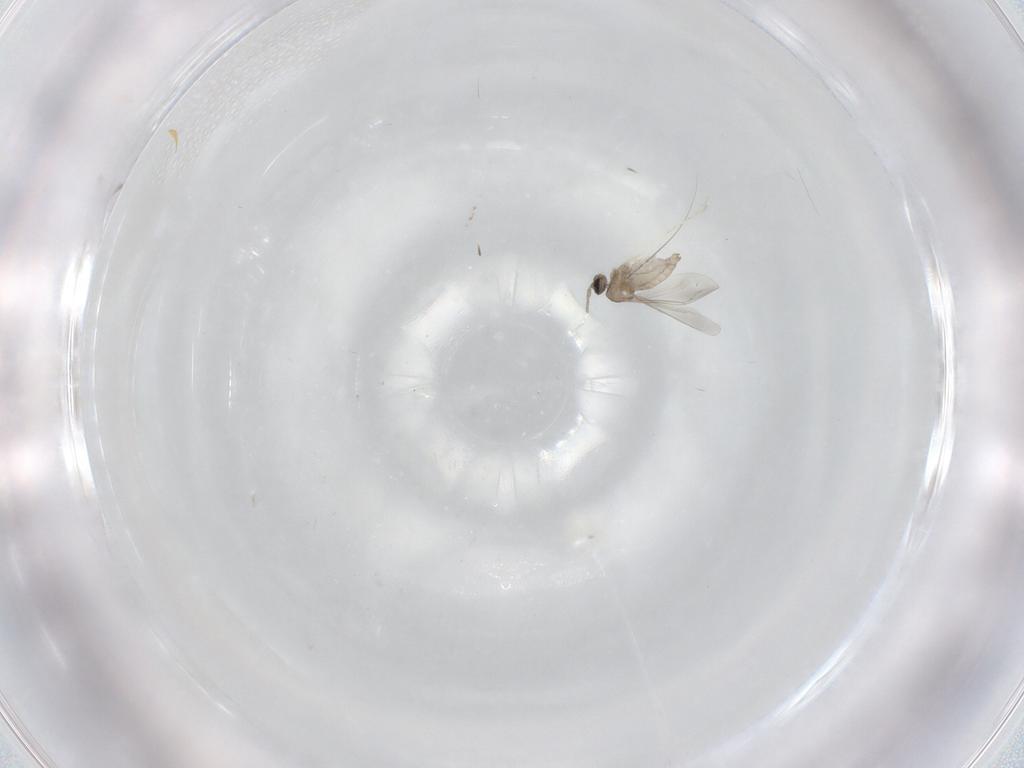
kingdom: Animalia
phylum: Arthropoda
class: Insecta
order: Diptera
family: Cecidomyiidae
